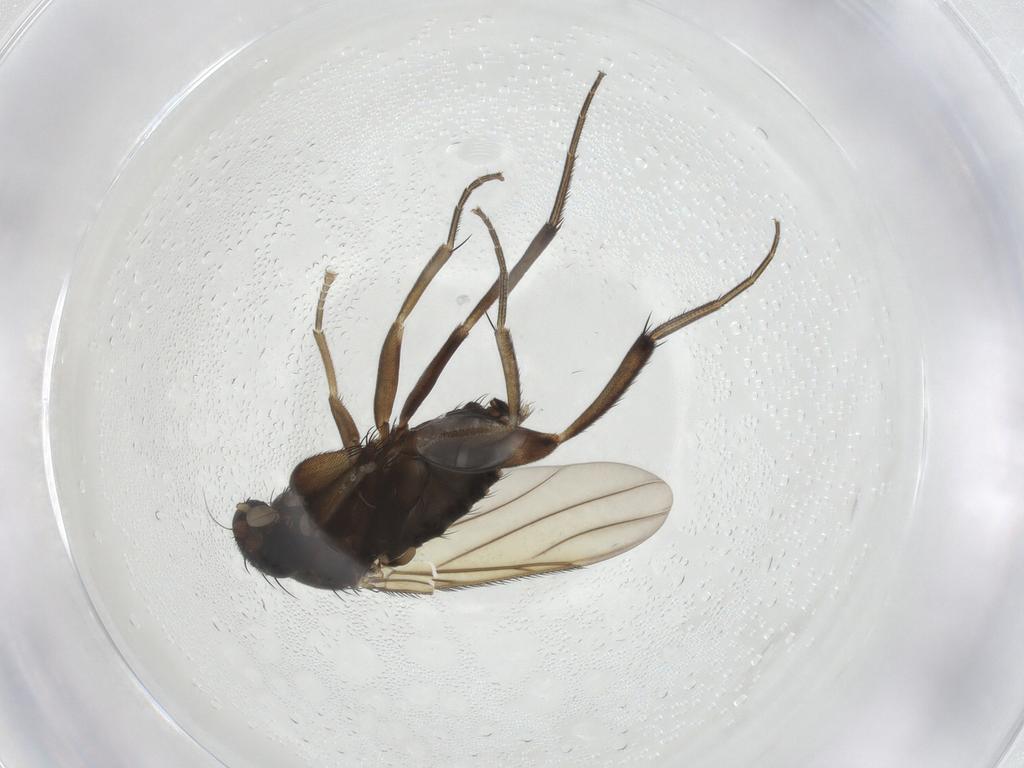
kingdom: Animalia
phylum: Arthropoda
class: Insecta
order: Diptera
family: Phoridae
